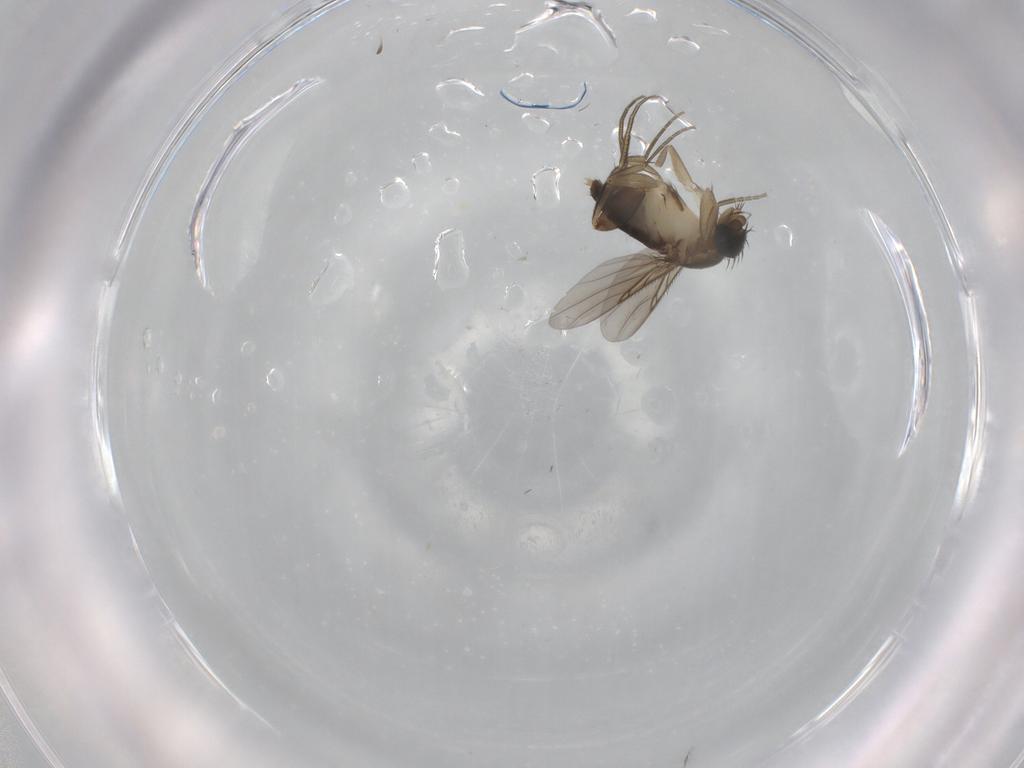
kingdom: Animalia
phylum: Arthropoda
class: Insecta
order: Diptera
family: Phoridae
